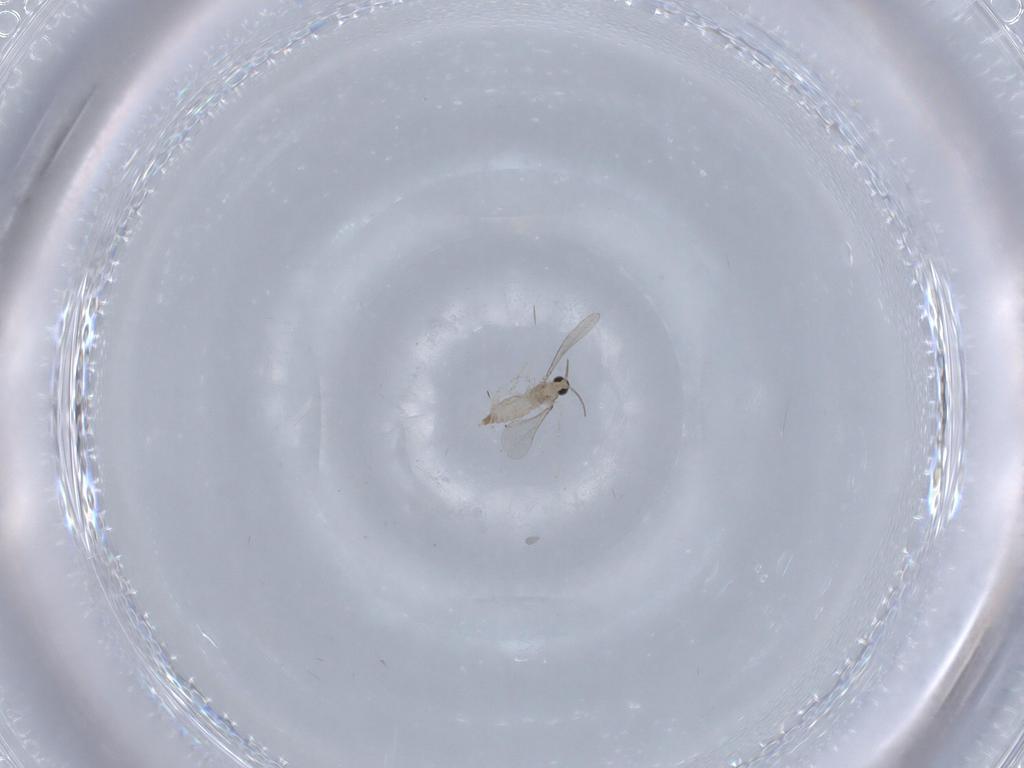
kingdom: Animalia
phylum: Arthropoda
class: Insecta
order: Diptera
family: Cecidomyiidae
